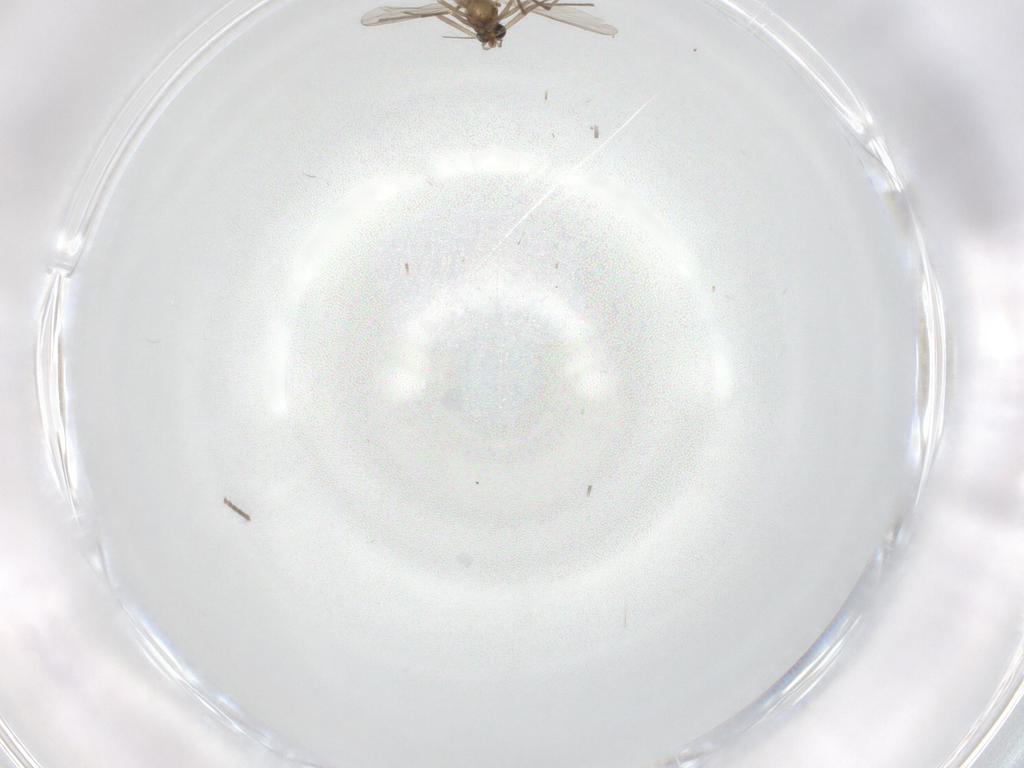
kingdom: Animalia
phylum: Arthropoda
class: Insecta
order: Diptera
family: Chironomidae
